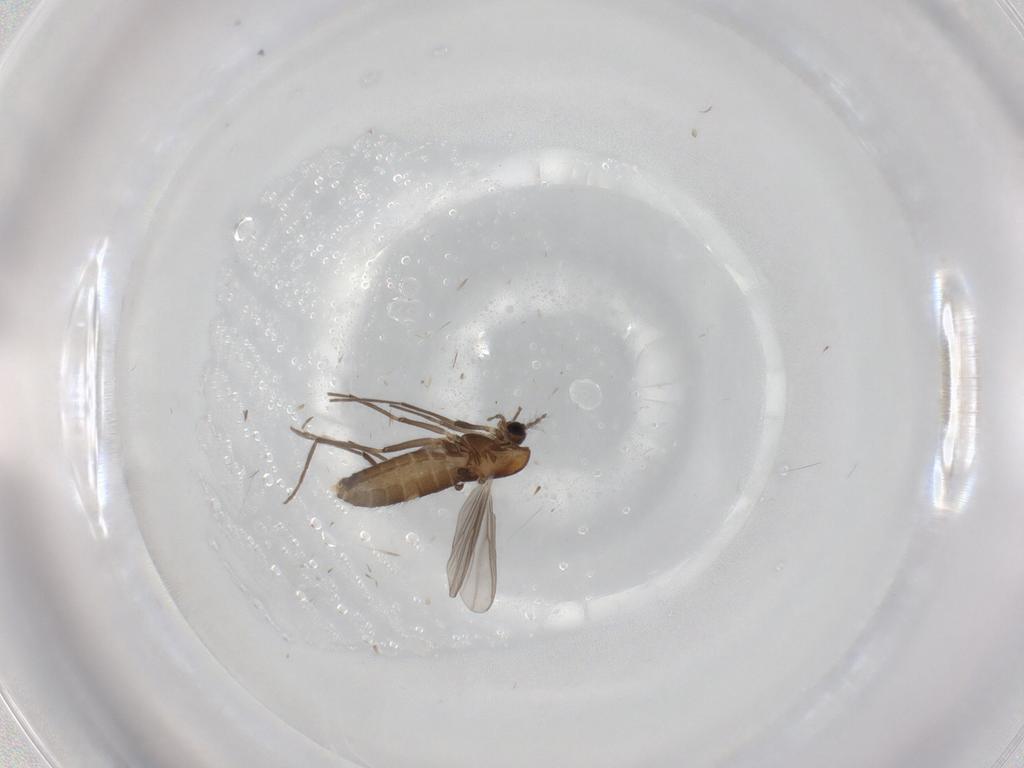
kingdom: Animalia
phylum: Arthropoda
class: Insecta
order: Diptera
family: Chironomidae
